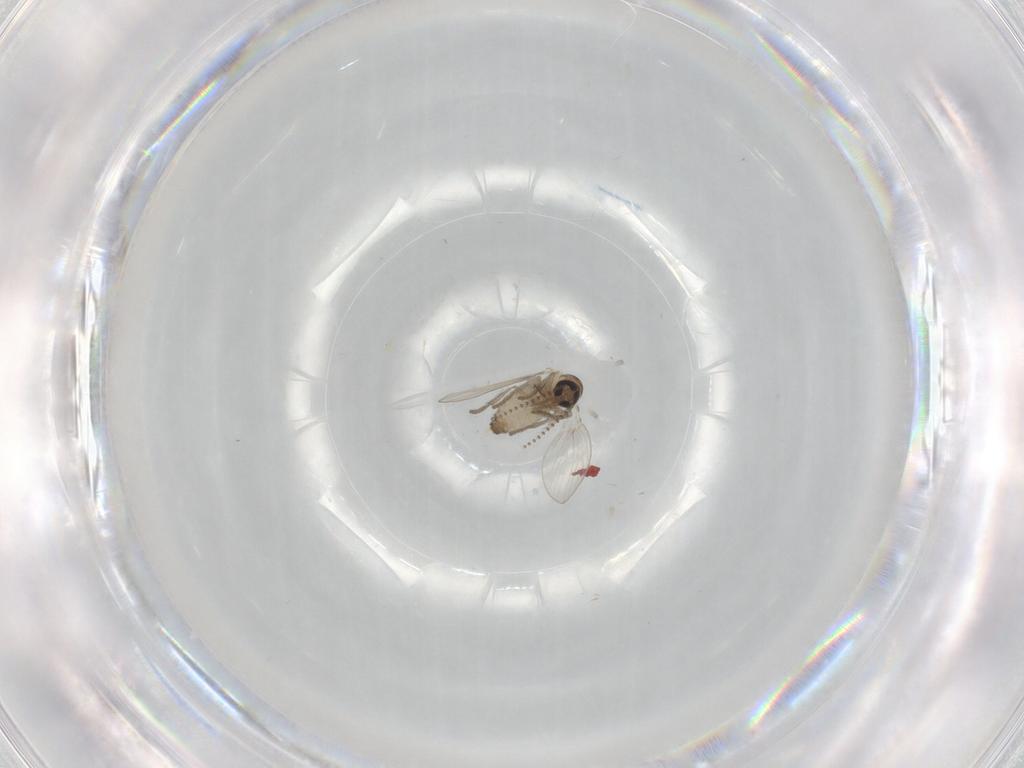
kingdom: Animalia
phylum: Arthropoda
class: Insecta
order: Diptera
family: Psychodidae
